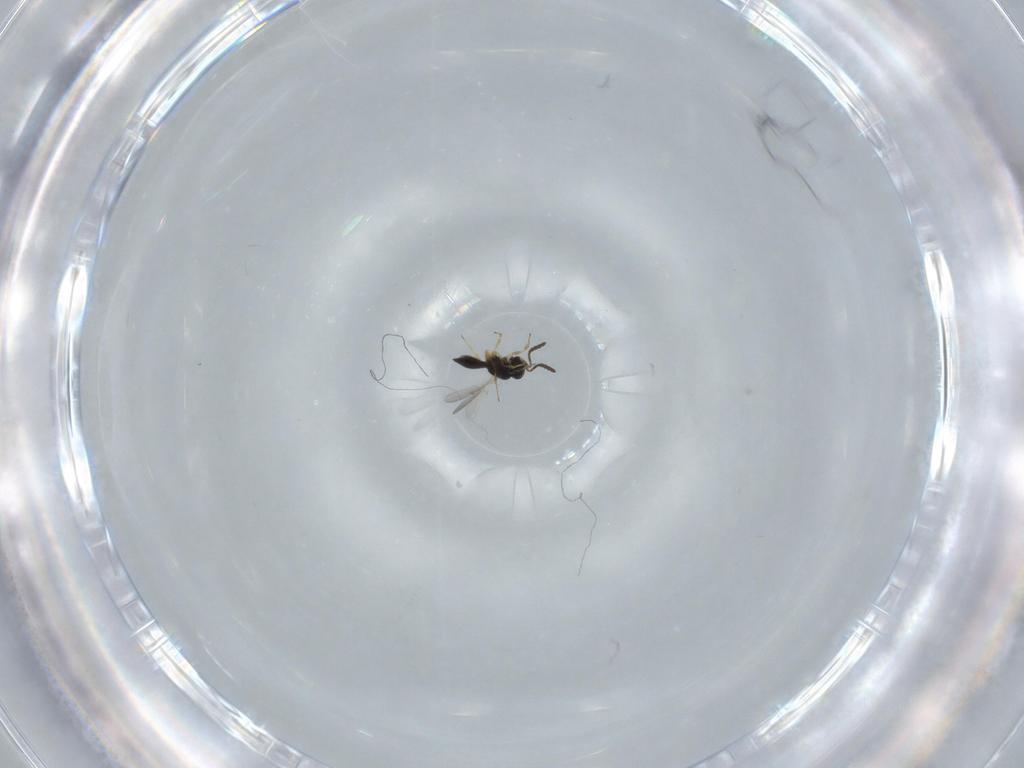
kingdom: Animalia
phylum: Arthropoda
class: Insecta
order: Hymenoptera
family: Scelionidae
